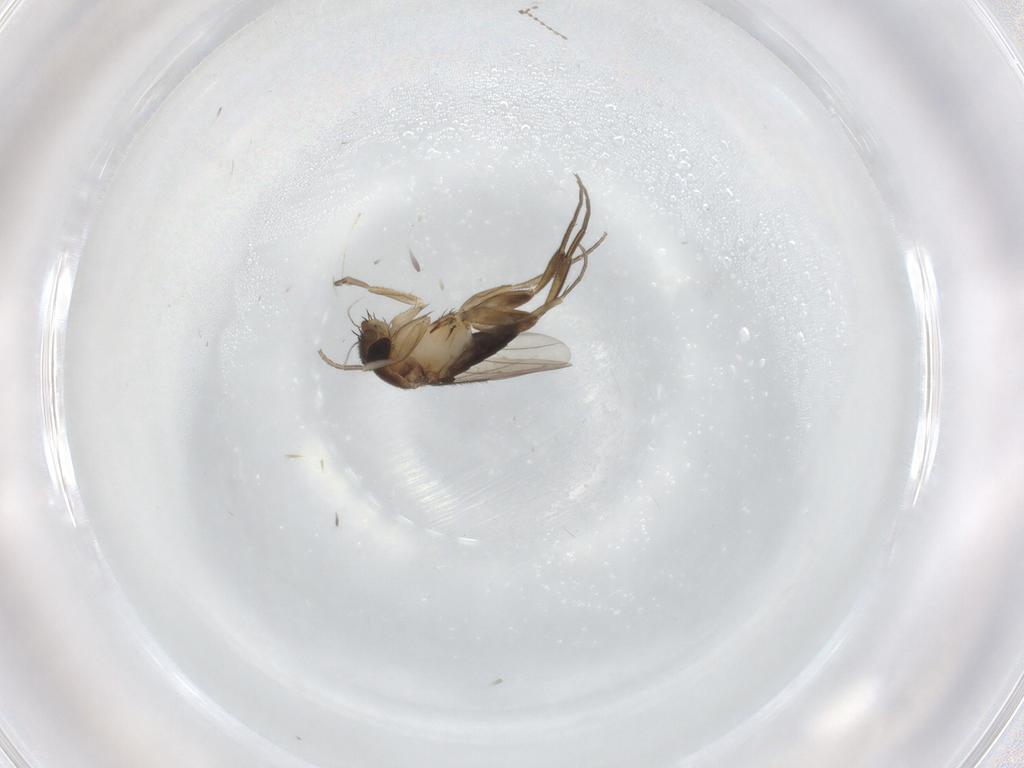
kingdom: Animalia
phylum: Arthropoda
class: Insecta
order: Diptera
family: Phoridae
